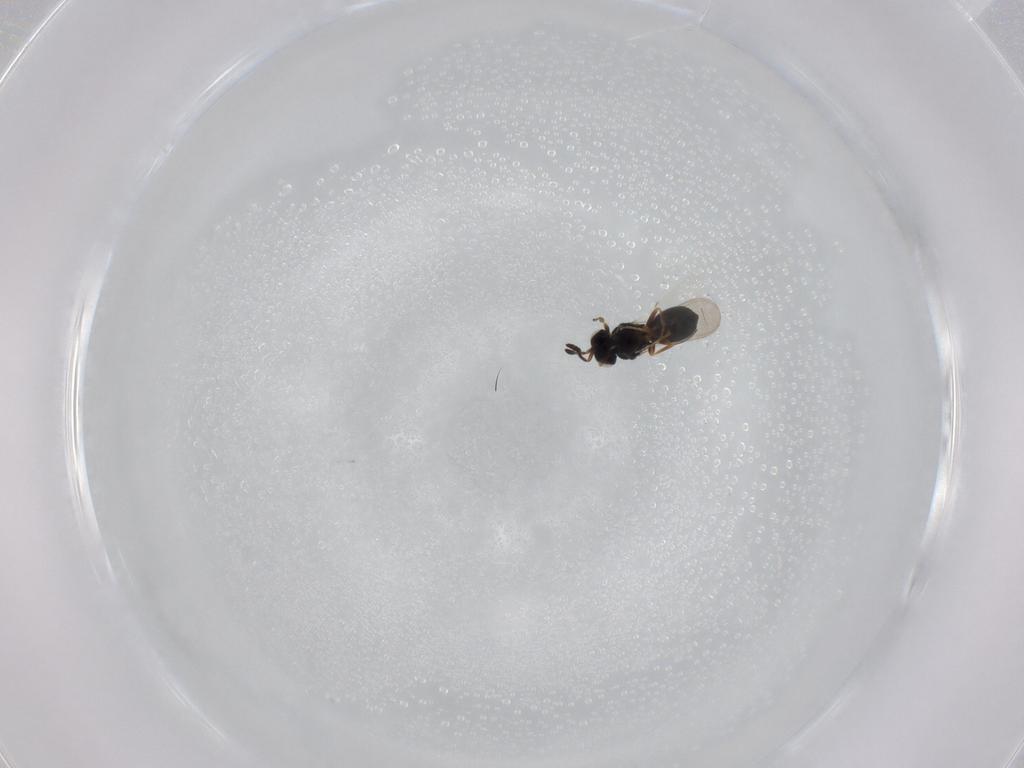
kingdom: Animalia
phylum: Arthropoda
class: Insecta
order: Hymenoptera
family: Scelionidae
